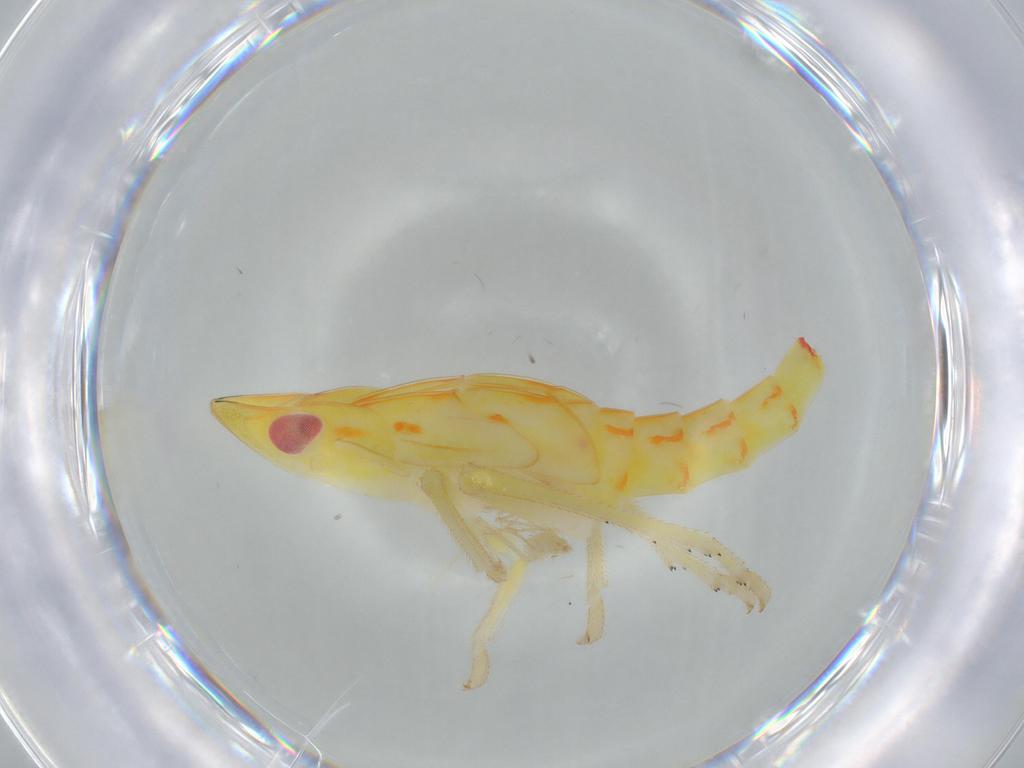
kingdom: Animalia
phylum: Arthropoda
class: Insecta
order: Hemiptera
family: Tropiduchidae
